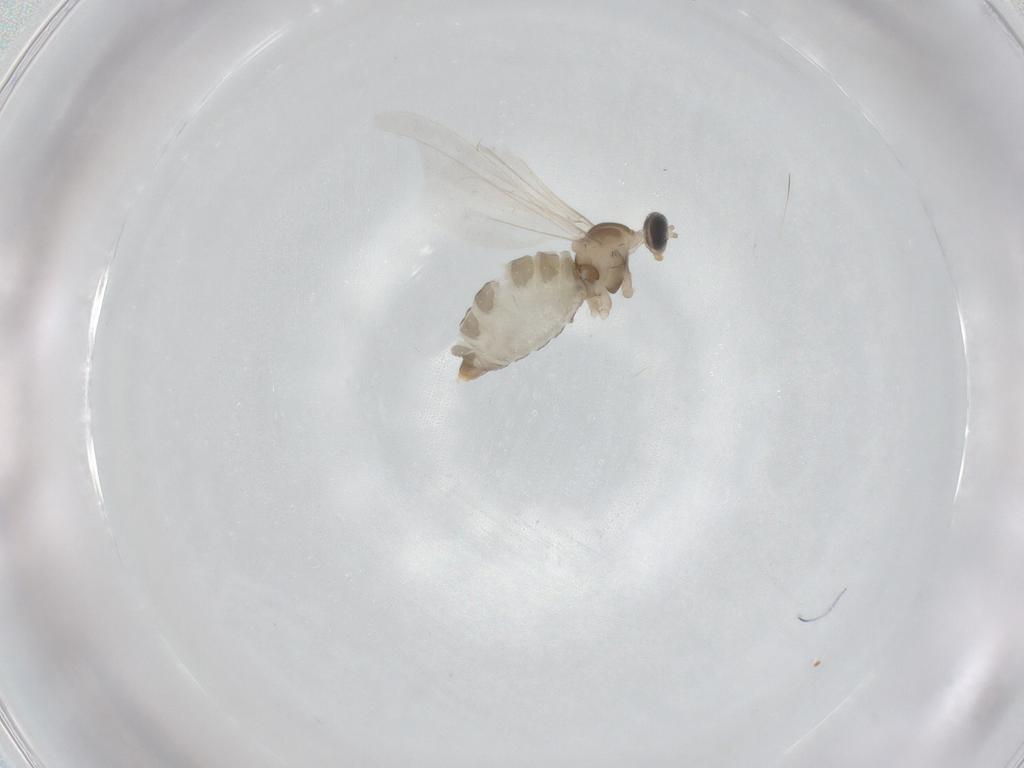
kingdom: Animalia
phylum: Arthropoda
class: Insecta
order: Diptera
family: Cecidomyiidae
